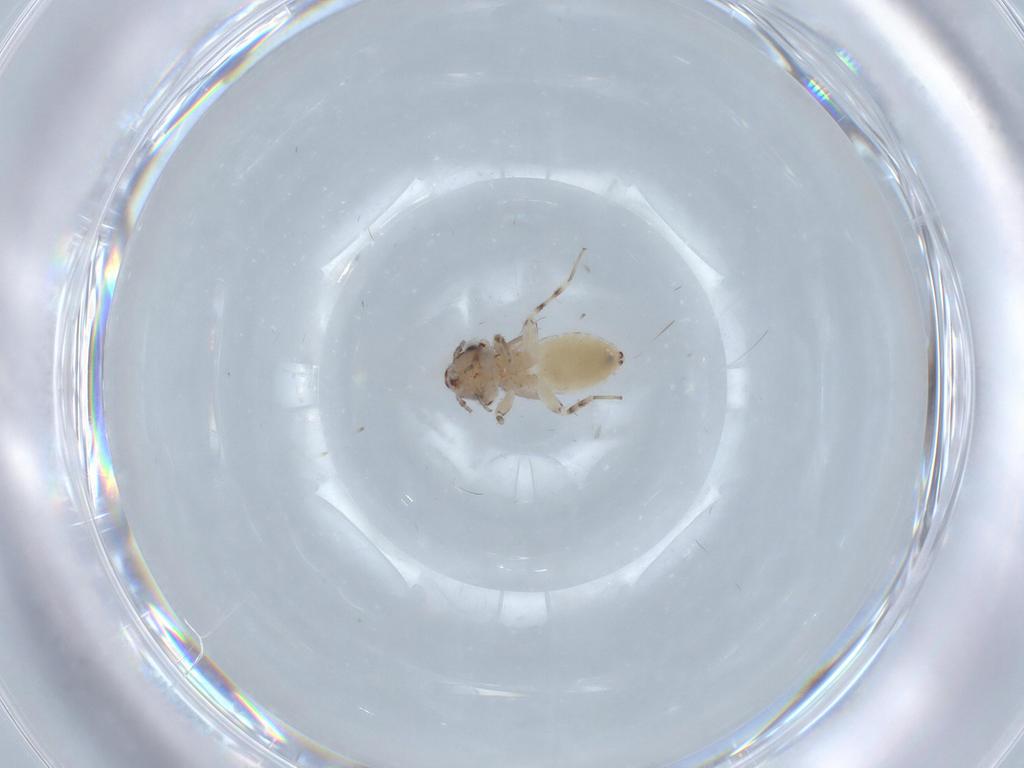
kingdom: Animalia
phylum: Arthropoda
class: Insecta
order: Psocodea
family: Lepidopsocidae
